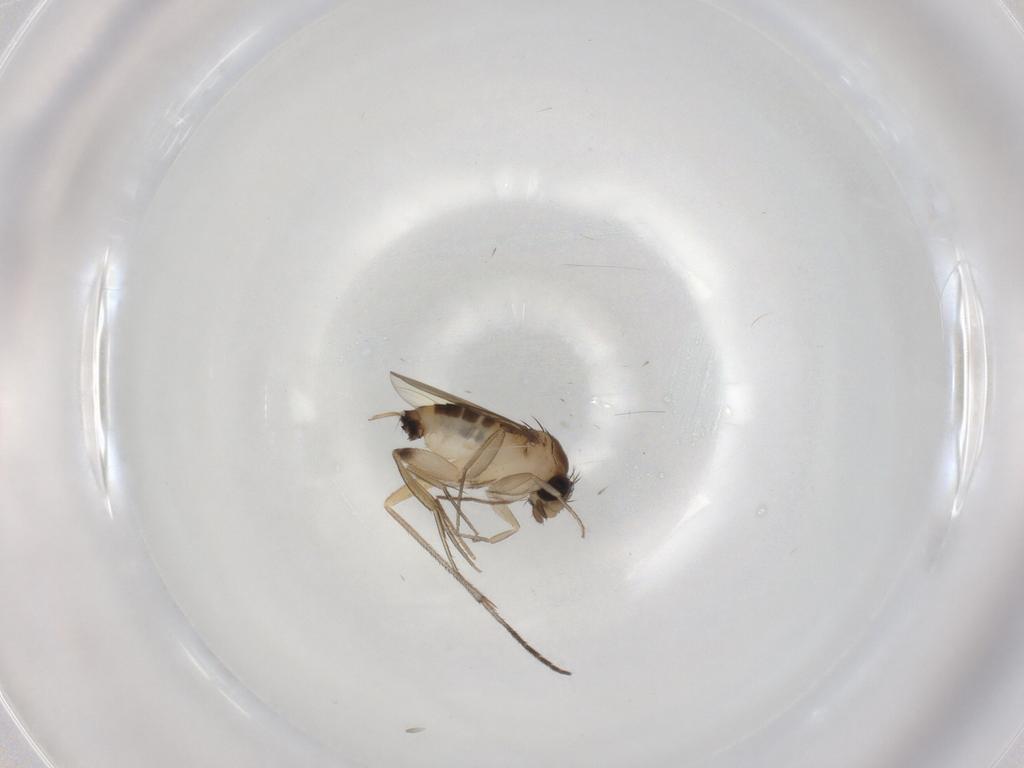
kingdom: Animalia
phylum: Arthropoda
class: Insecta
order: Diptera
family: Phoridae
